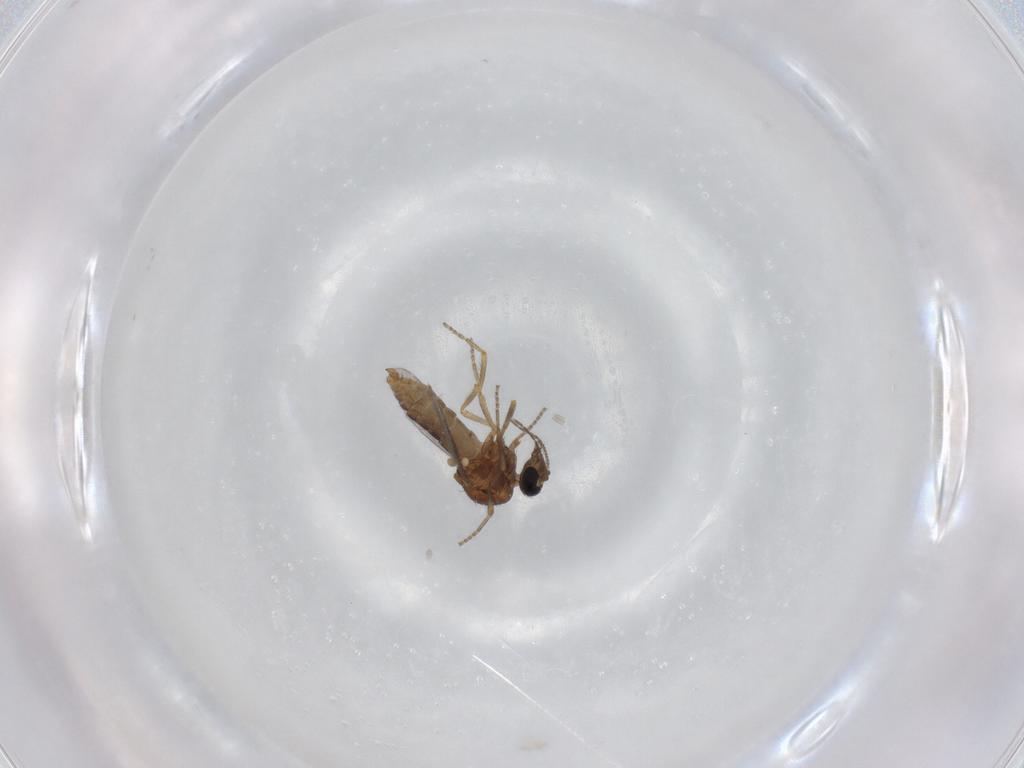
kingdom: Animalia
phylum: Arthropoda
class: Insecta
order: Diptera
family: Ceratopogonidae
